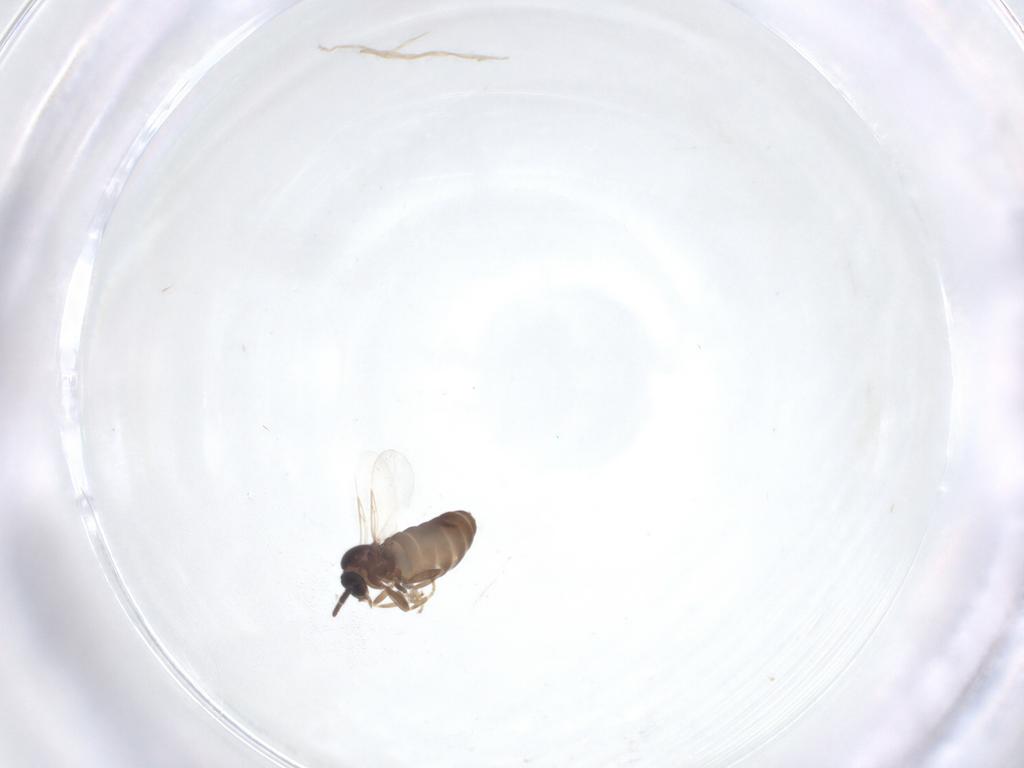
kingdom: Animalia
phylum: Arthropoda
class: Insecta
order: Diptera
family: Scatopsidae
